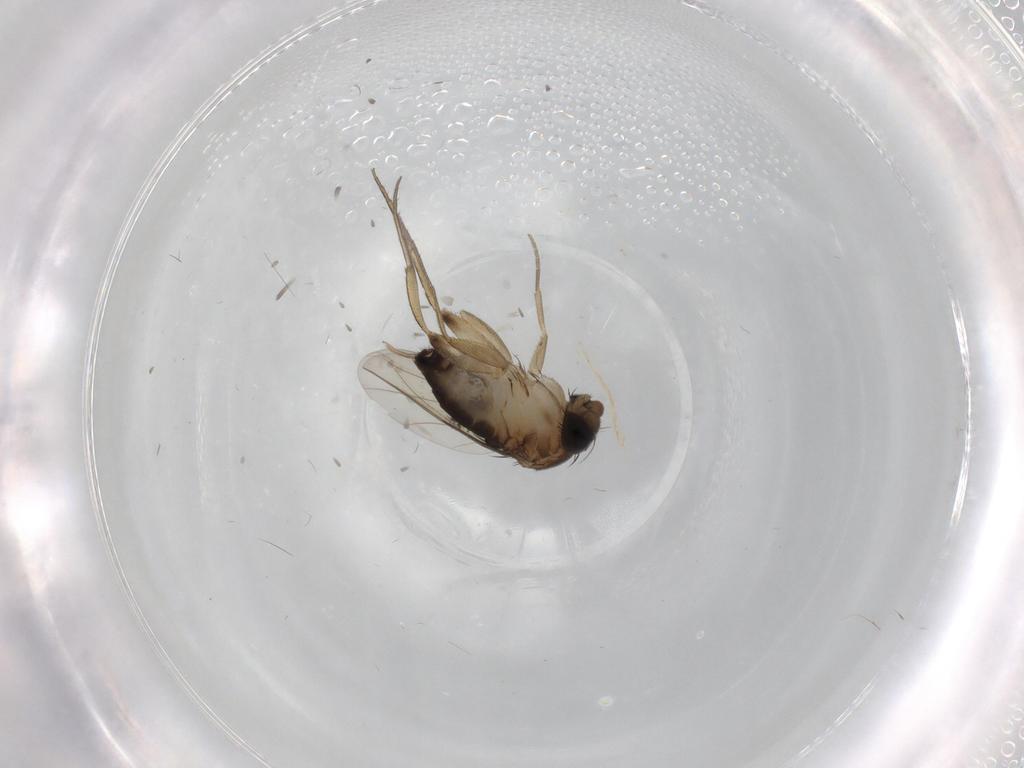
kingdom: Animalia
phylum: Arthropoda
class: Insecta
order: Diptera
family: Phoridae
